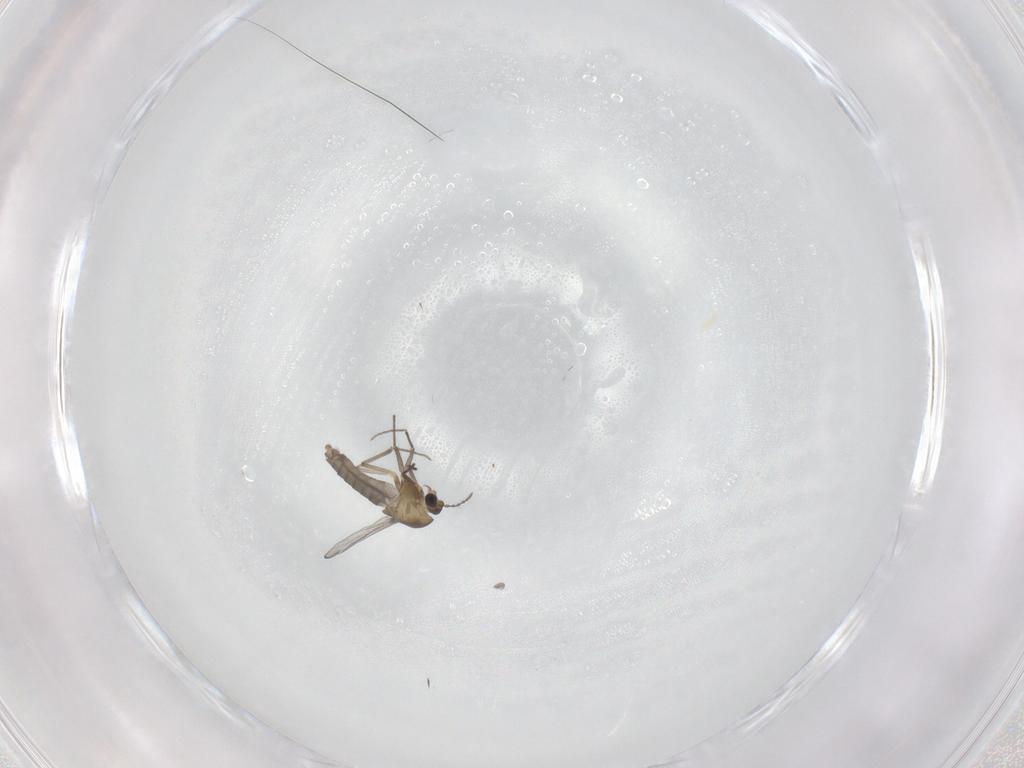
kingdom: Animalia
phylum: Arthropoda
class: Insecta
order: Diptera
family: Chironomidae
